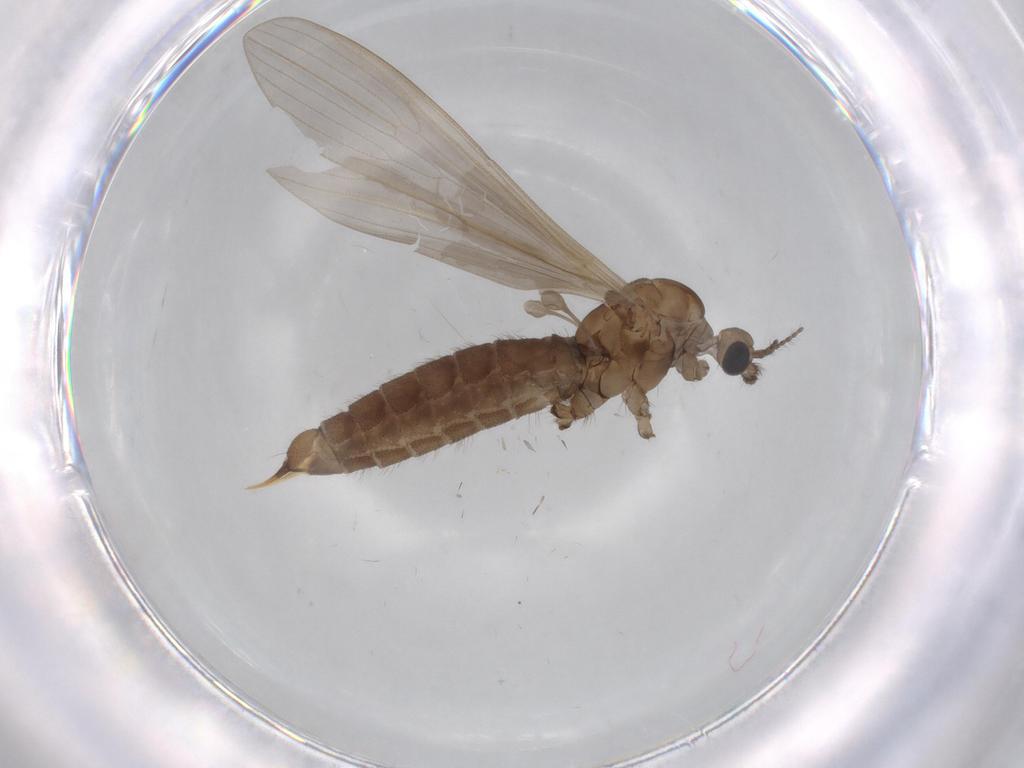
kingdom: Animalia
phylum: Arthropoda
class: Insecta
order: Diptera
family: Limoniidae
